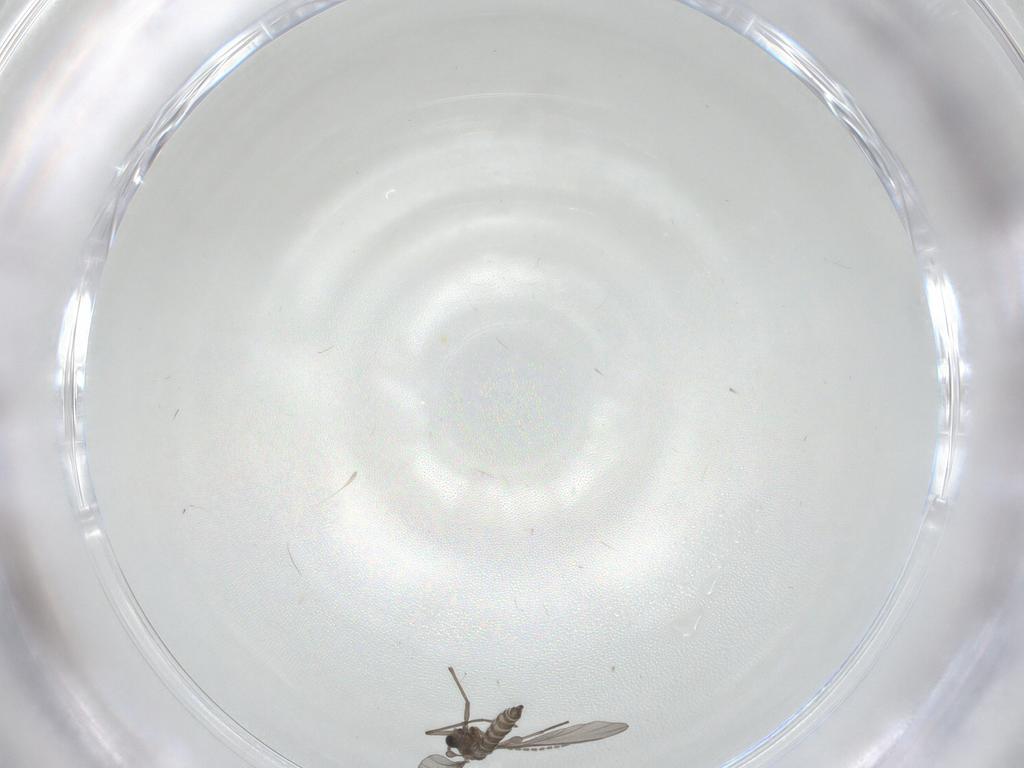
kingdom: Animalia
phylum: Arthropoda
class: Insecta
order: Diptera
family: Sciaridae
